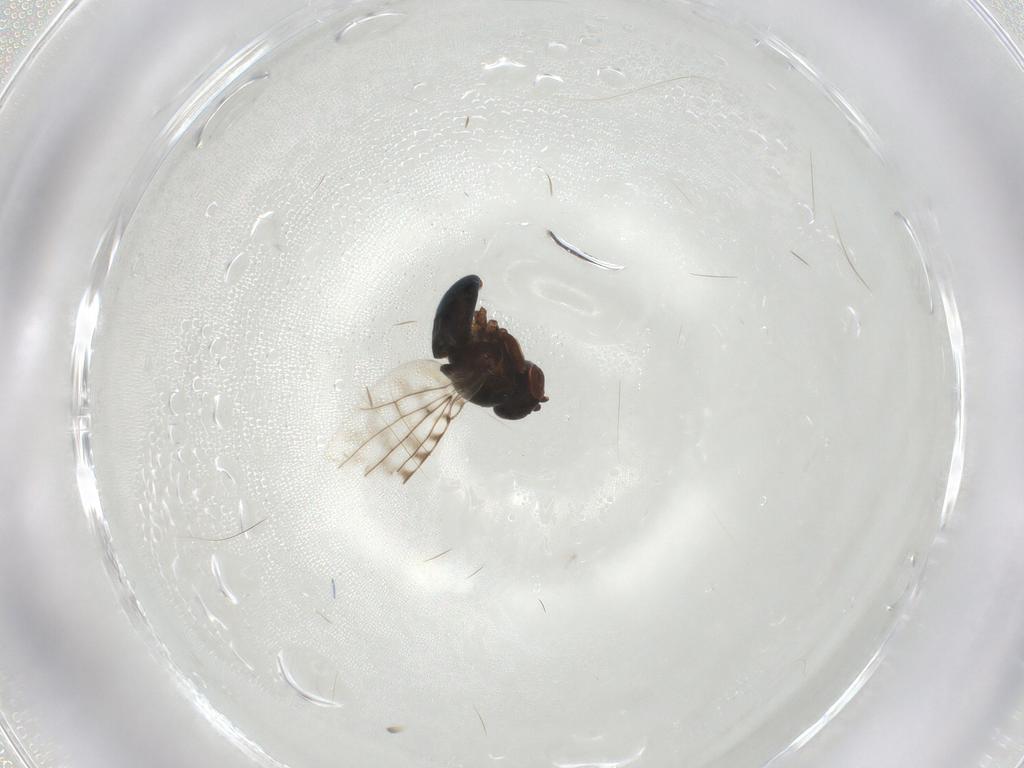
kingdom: Animalia
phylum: Arthropoda
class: Insecta
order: Diptera
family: Ephydridae
